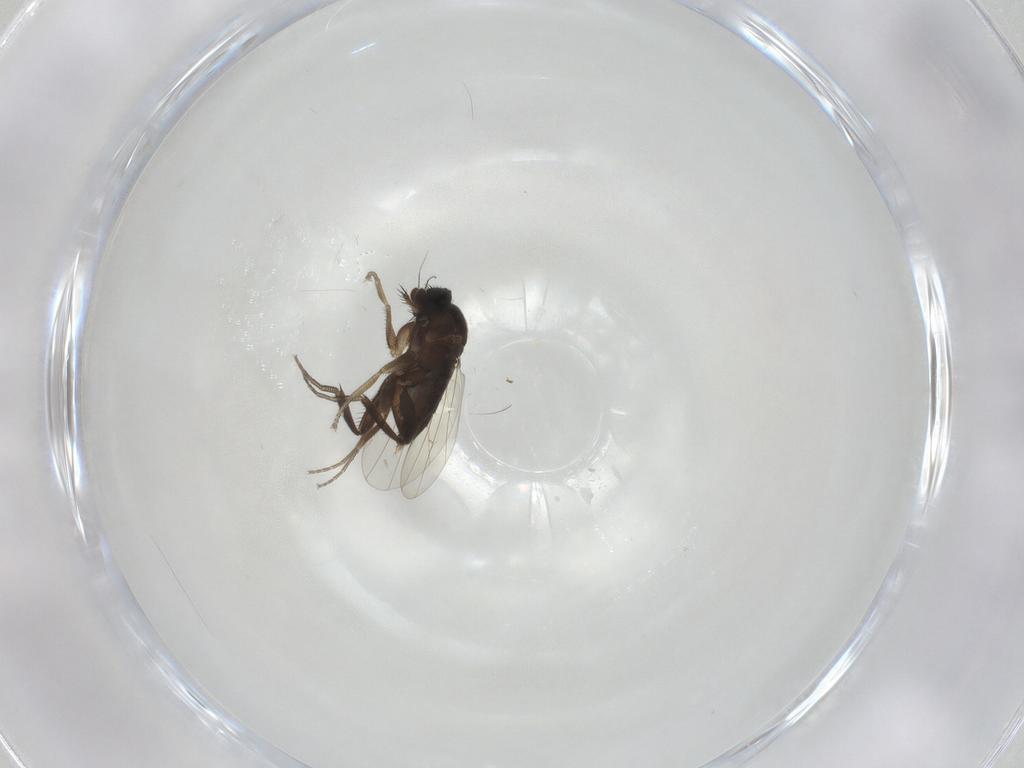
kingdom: Animalia
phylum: Arthropoda
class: Insecta
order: Diptera
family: Phoridae
